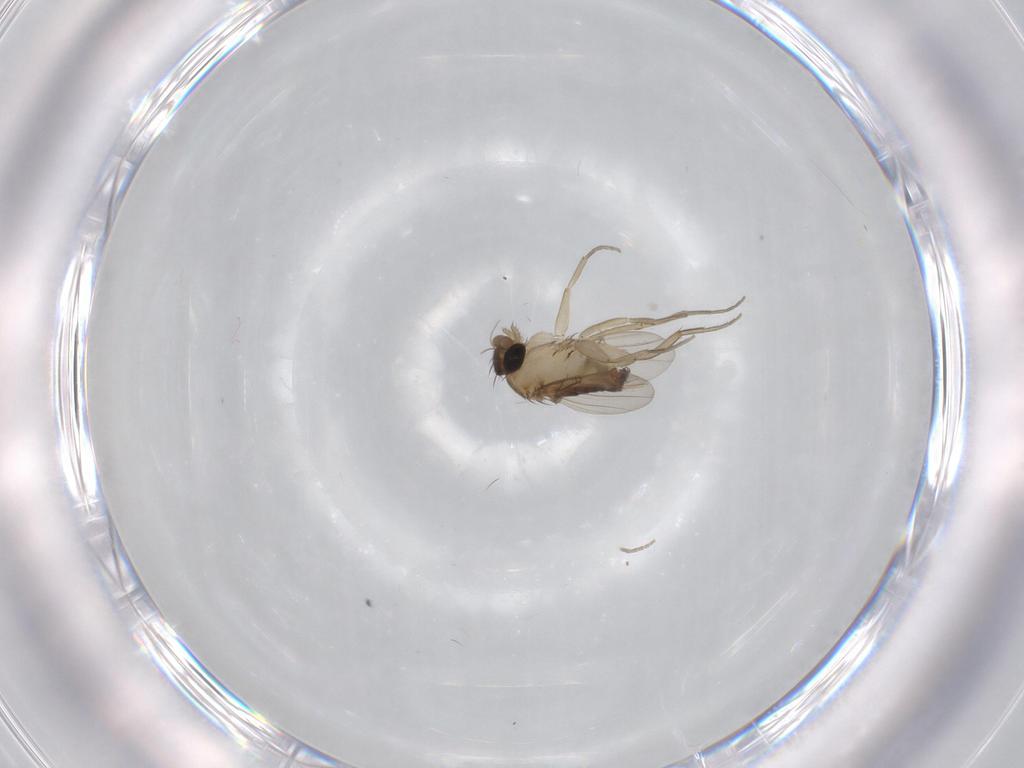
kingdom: Animalia
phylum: Arthropoda
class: Insecta
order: Diptera
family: Phoridae
